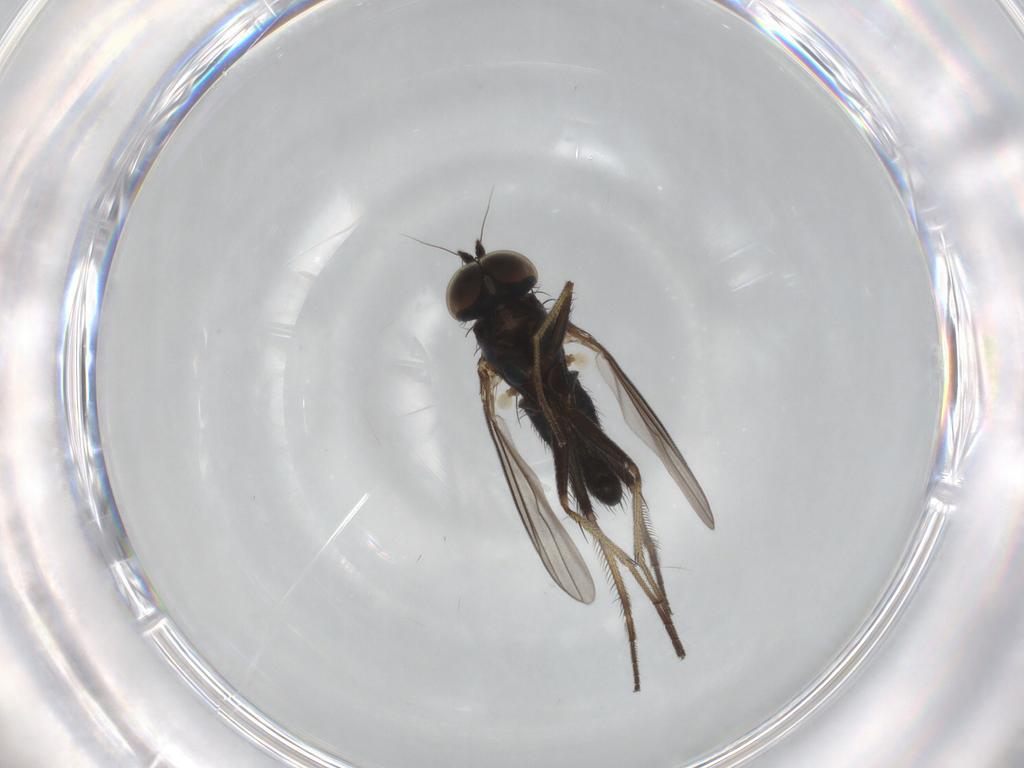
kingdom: Animalia
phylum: Arthropoda
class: Insecta
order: Diptera
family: Dolichopodidae
